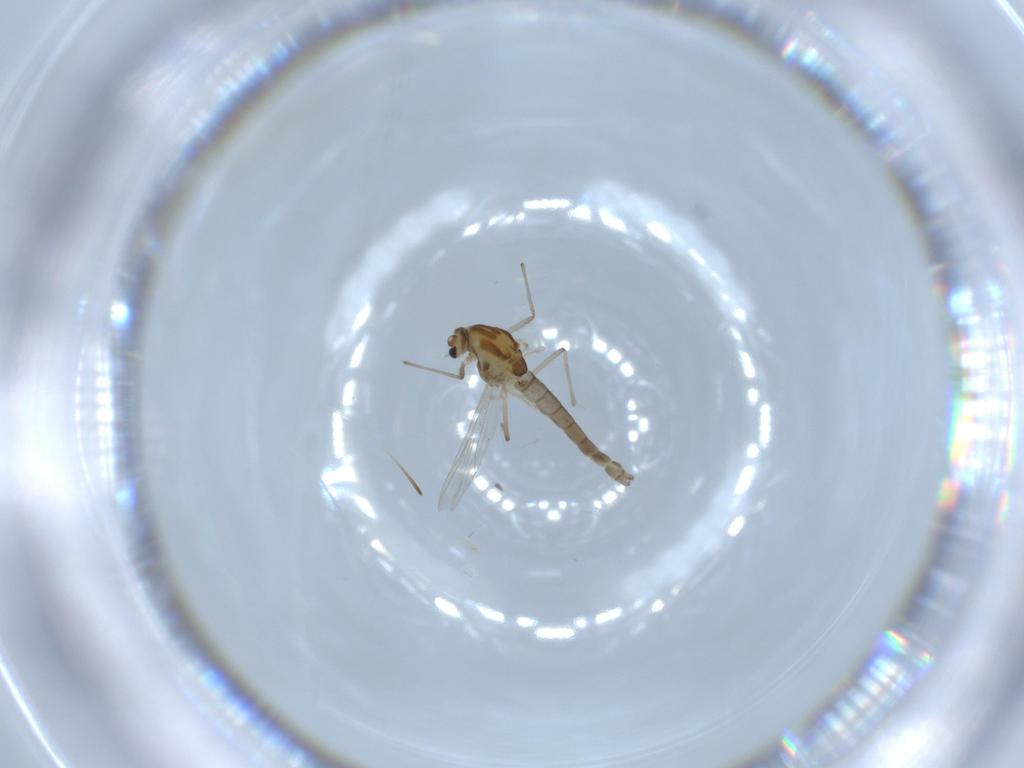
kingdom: Animalia
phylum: Arthropoda
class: Insecta
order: Diptera
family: Chironomidae
